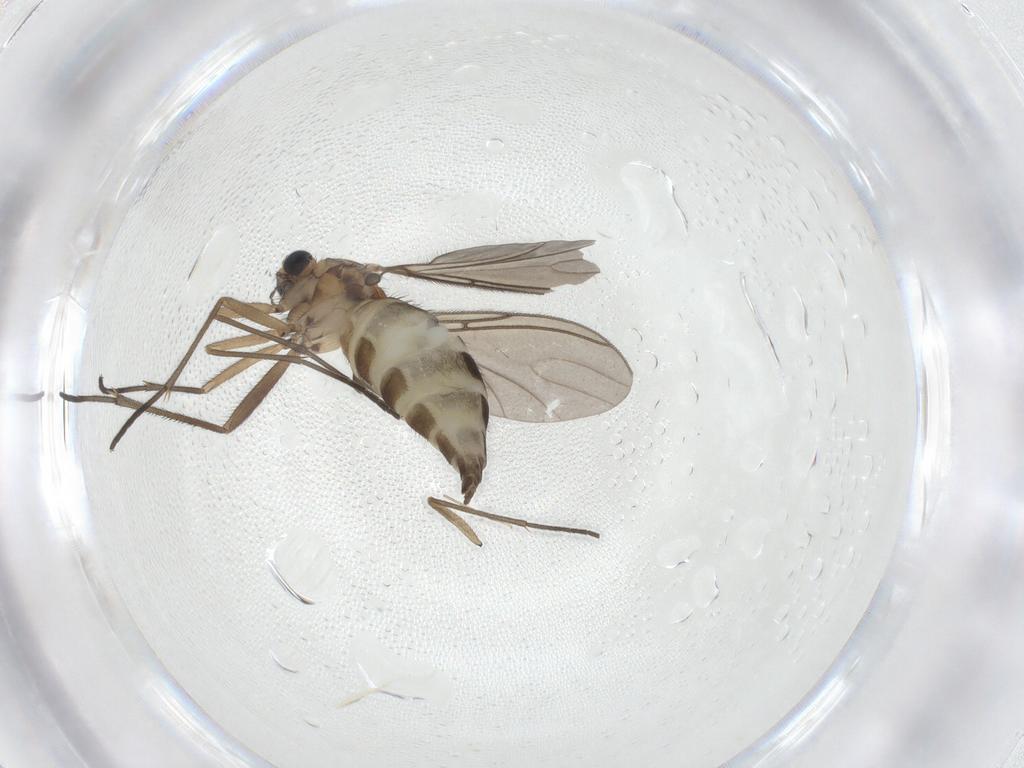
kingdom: Animalia
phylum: Arthropoda
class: Insecta
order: Diptera
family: Sciaridae
